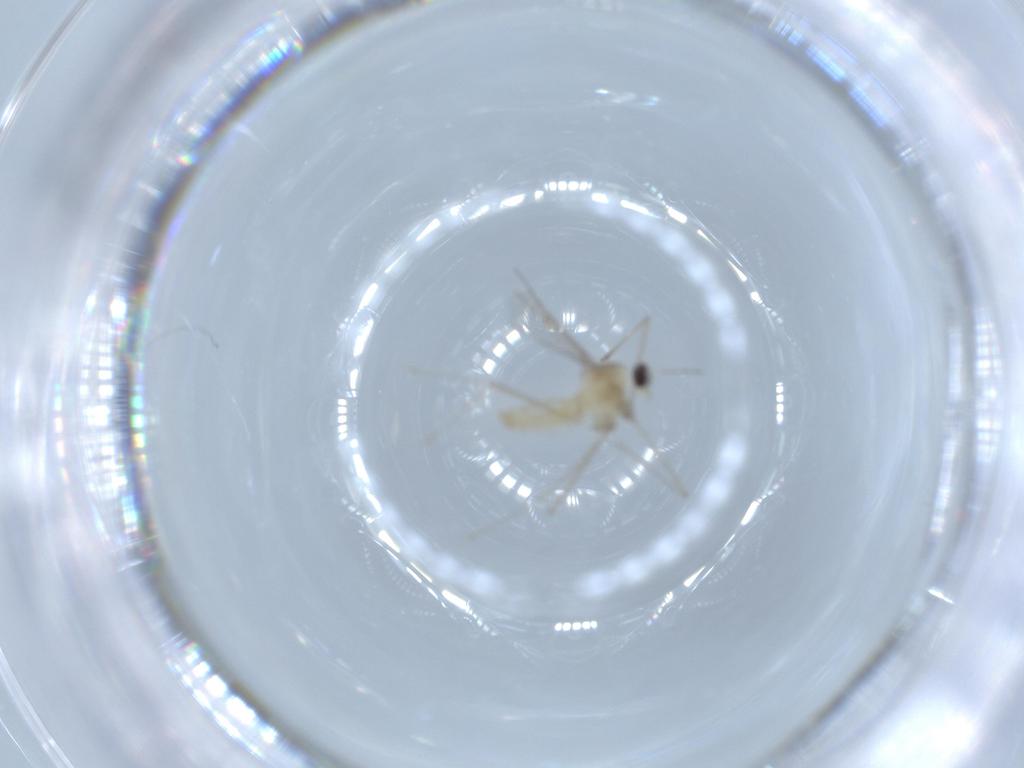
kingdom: Animalia
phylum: Arthropoda
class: Insecta
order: Diptera
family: Cecidomyiidae
